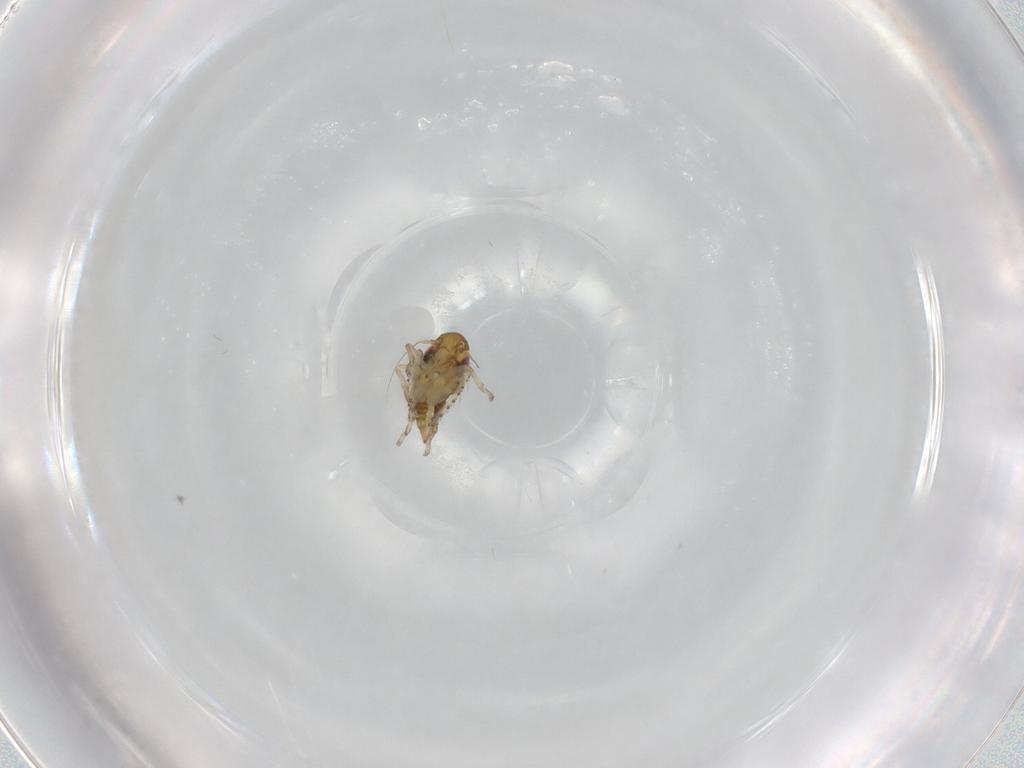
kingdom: Animalia
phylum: Arthropoda
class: Insecta
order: Hemiptera
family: Cicadellidae
